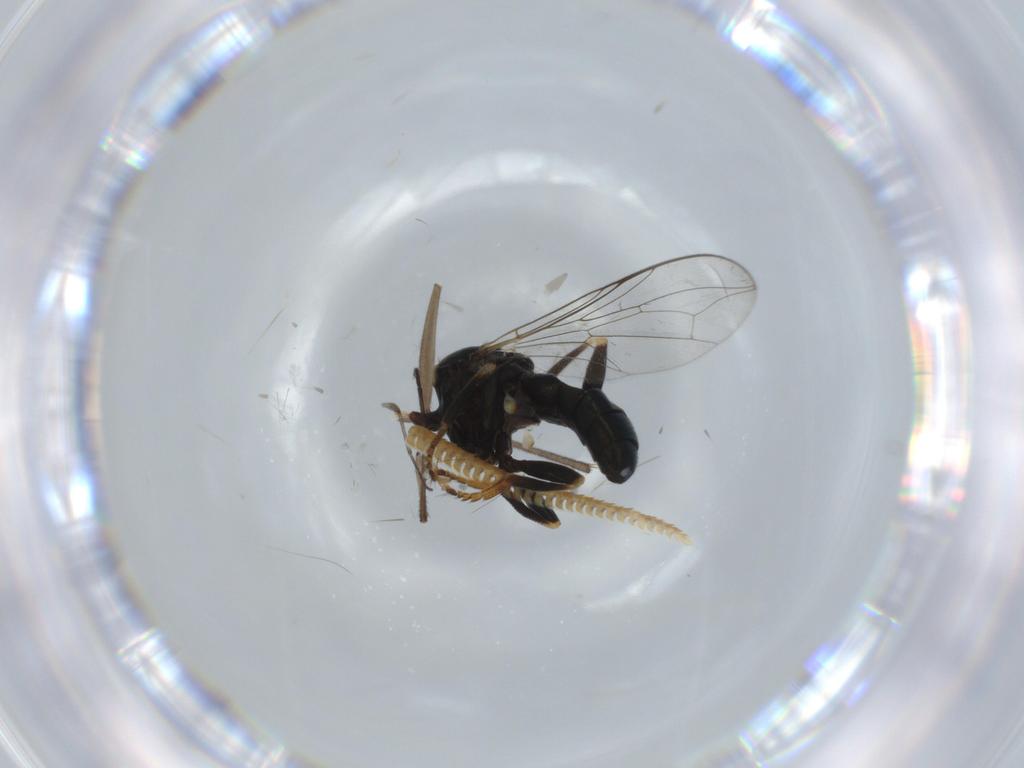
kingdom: Animalia
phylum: Arthropoda
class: Insecta
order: Diptera
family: Pipunculidae
